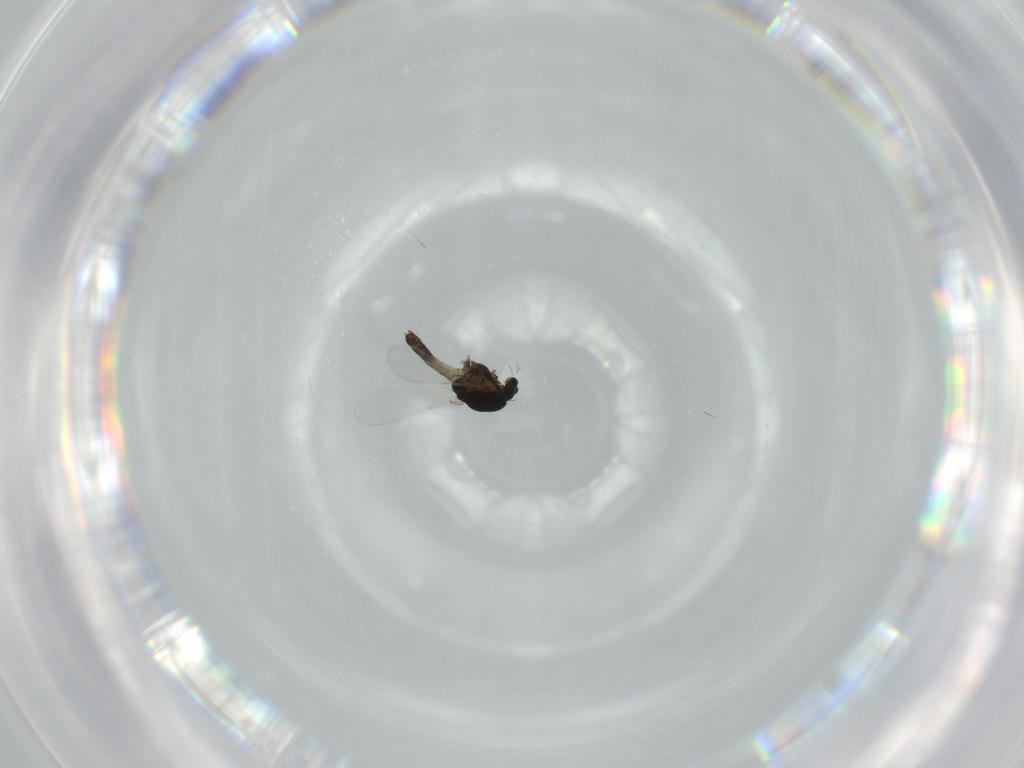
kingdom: Animalia
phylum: Arthropoda
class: Insecta
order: Diptera
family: Chironomidae
